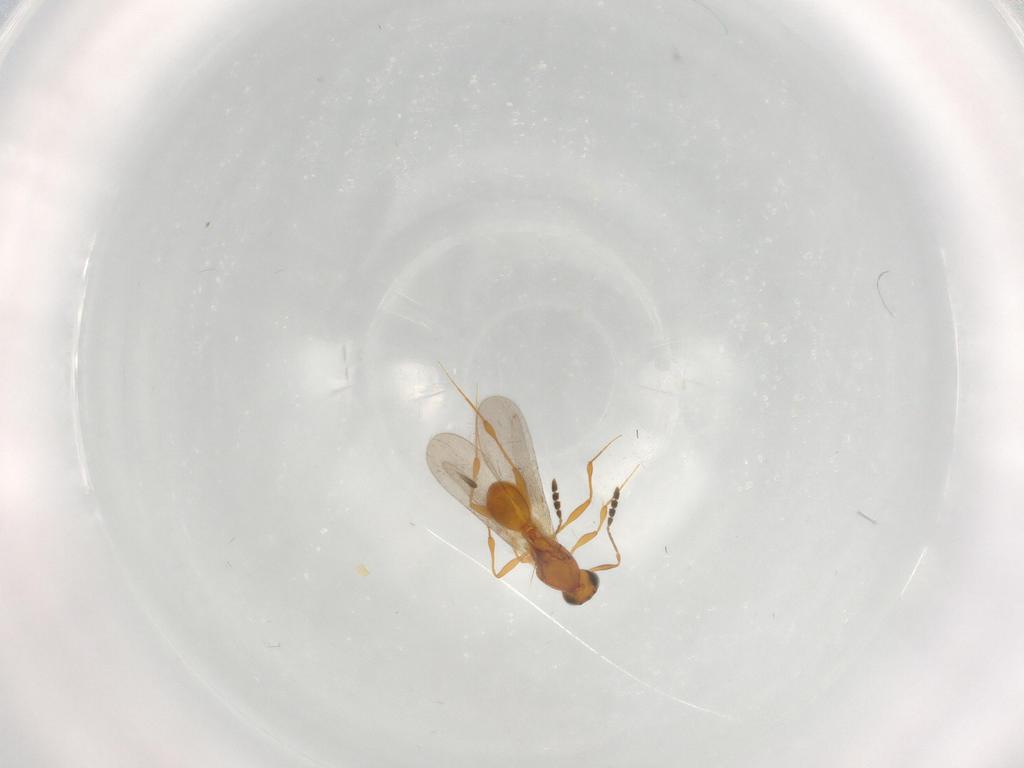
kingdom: Animalia
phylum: Arthropoda
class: Insecta
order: Hymenoptera
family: Platygastridae
